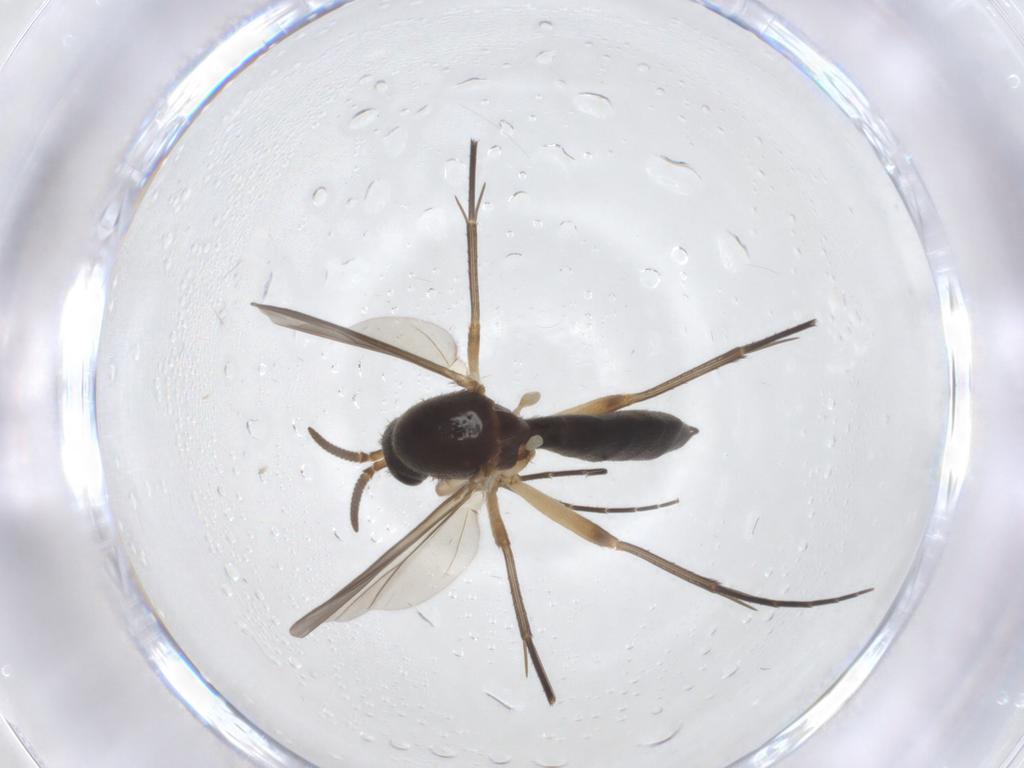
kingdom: Animalia
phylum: Arthropoda
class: Insecta
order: Diptera
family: Mycetophilidae
